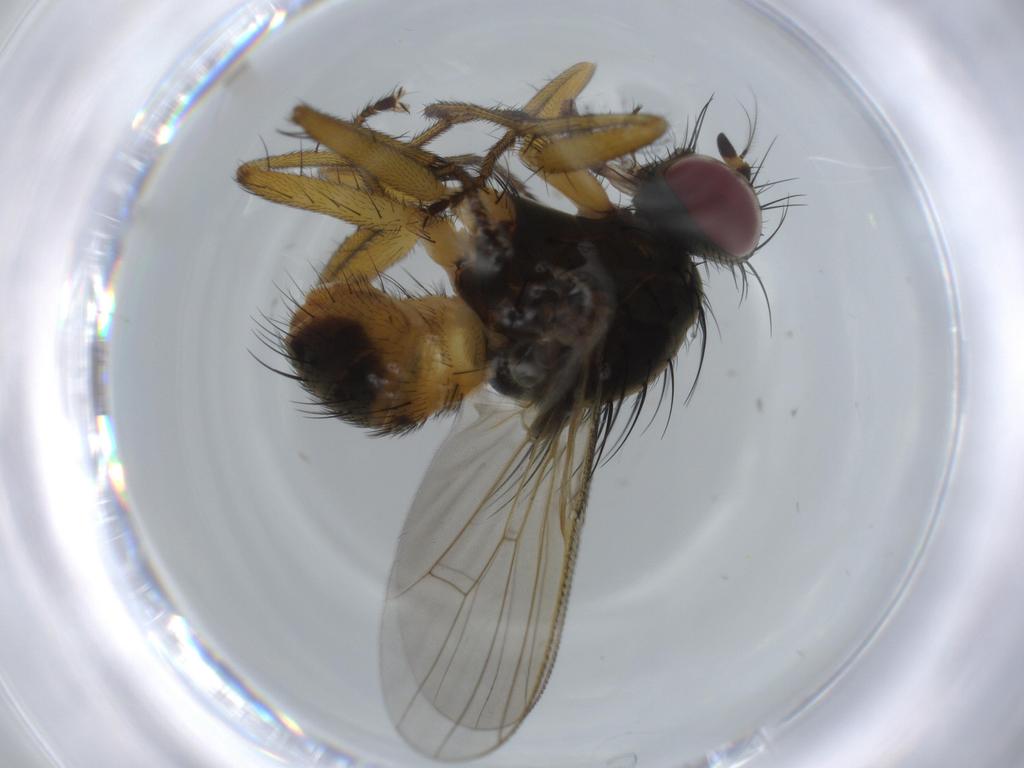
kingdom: Animalia
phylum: Arthropoda
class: Insecta
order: Diptera
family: Muscidae
